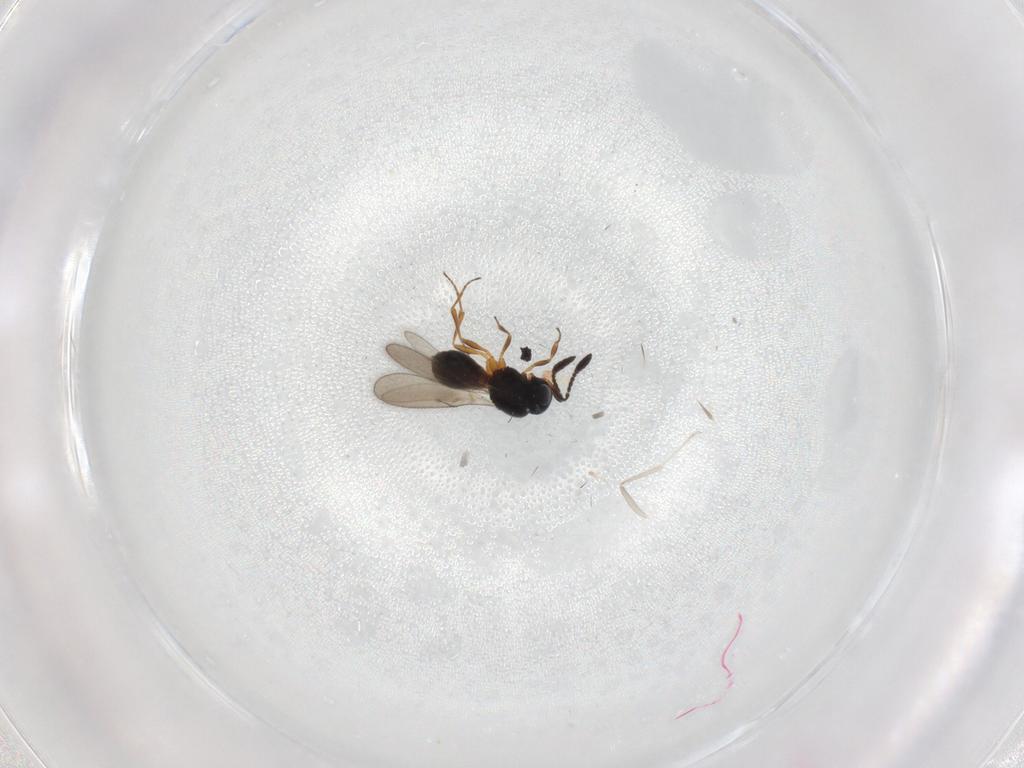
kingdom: Animalia
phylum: Arthropoda
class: Insecta
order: Hymenoptera
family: Scelionidae
